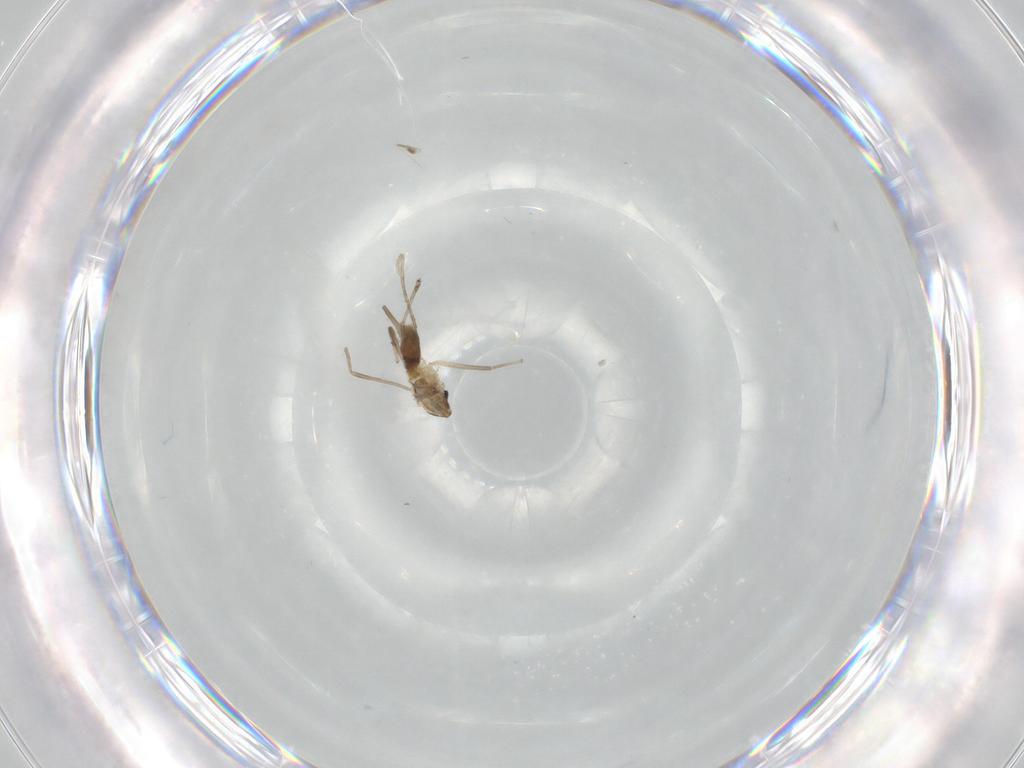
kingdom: Animalia
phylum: Arthropoda
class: Insecta
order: Diptera
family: Chironomidae
